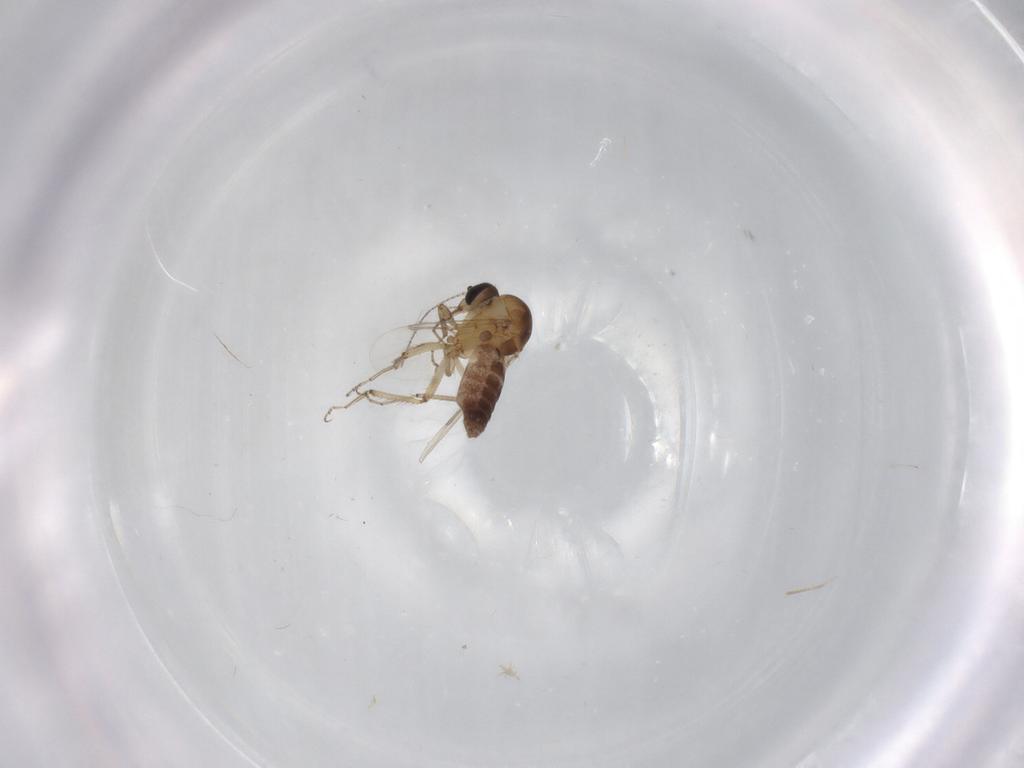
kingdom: Animalia
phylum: Arthropoda
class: Insecta
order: Diptera
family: Ceratopogonidae
